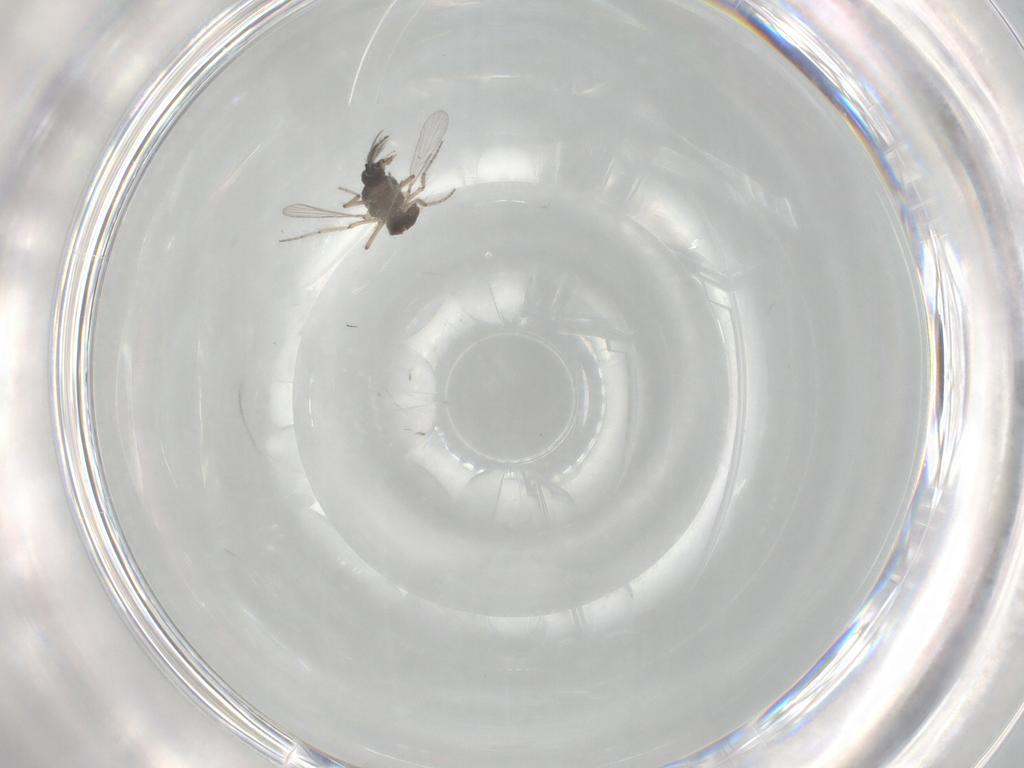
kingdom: Animalia
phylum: Arthropoda
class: Insecta
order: Diptera
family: Ceratopogonidae
